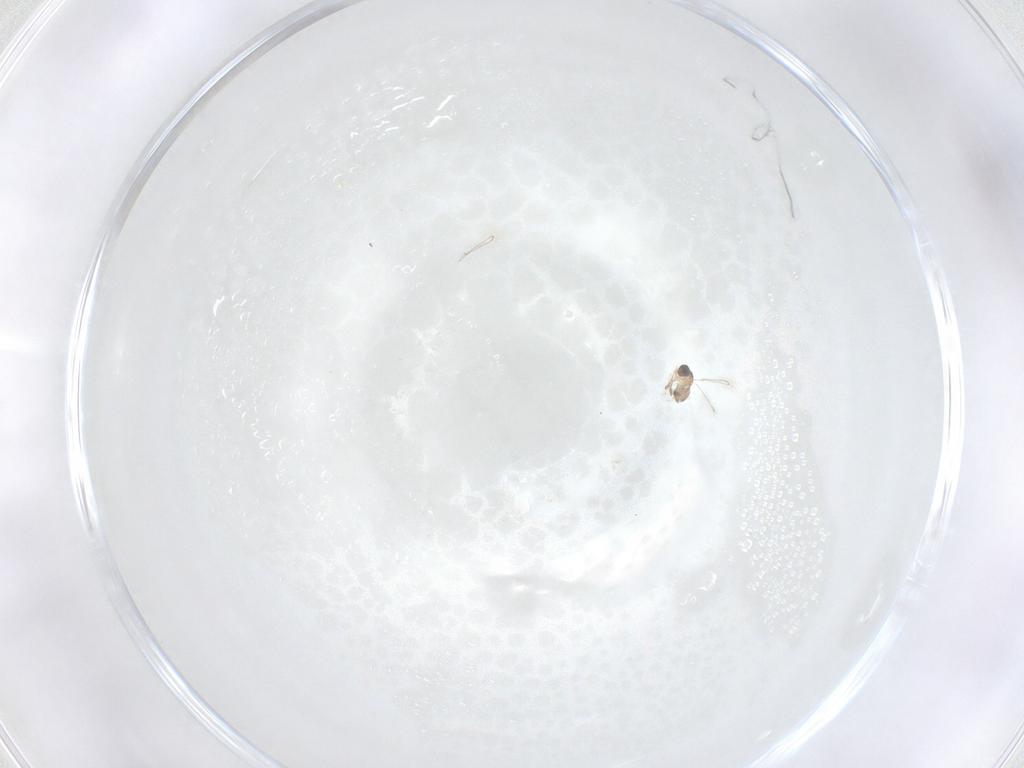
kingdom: Animalia
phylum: Arthropoda
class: Insecta
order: Hymenoptera
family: Mymaridae
